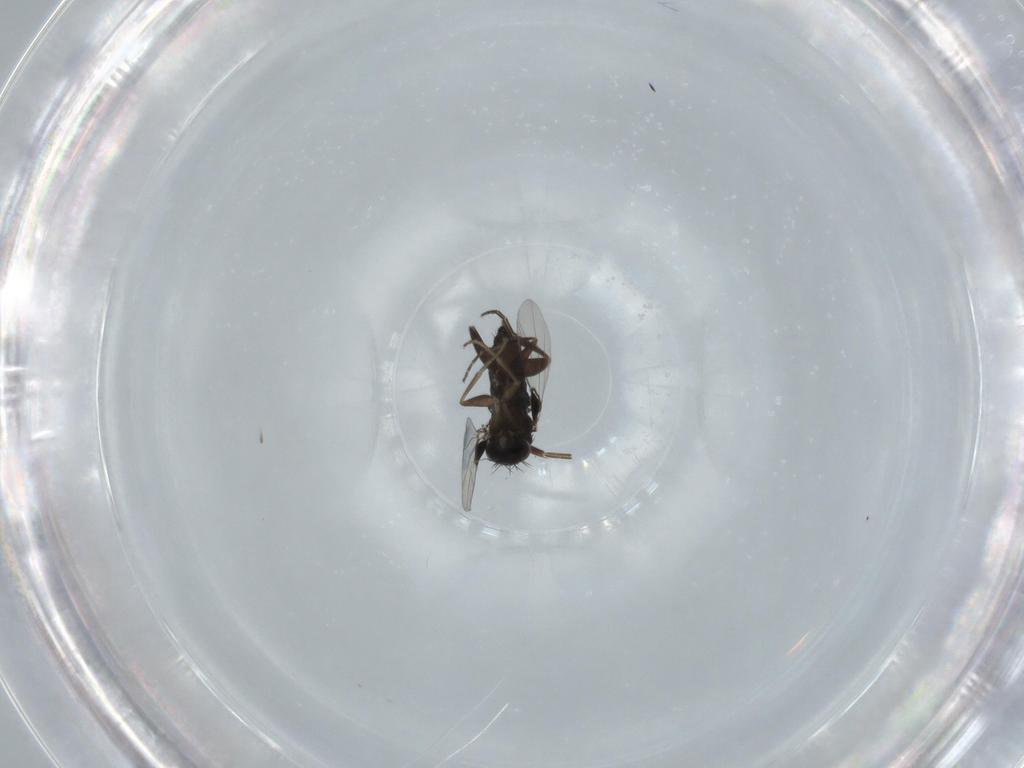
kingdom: Animalia
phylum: Arthropoda
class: Insecta
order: Diptera
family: Phoridae
